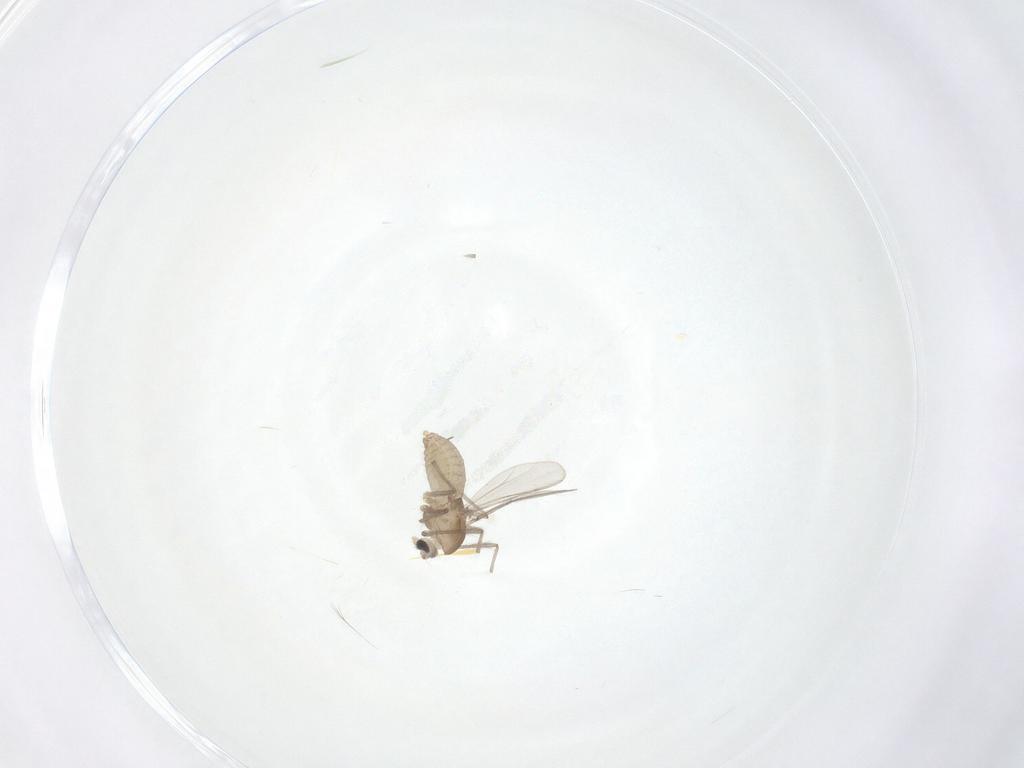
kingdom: Animalia
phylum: Arthropoda
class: Insecta
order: Diptera
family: Chironomidae
